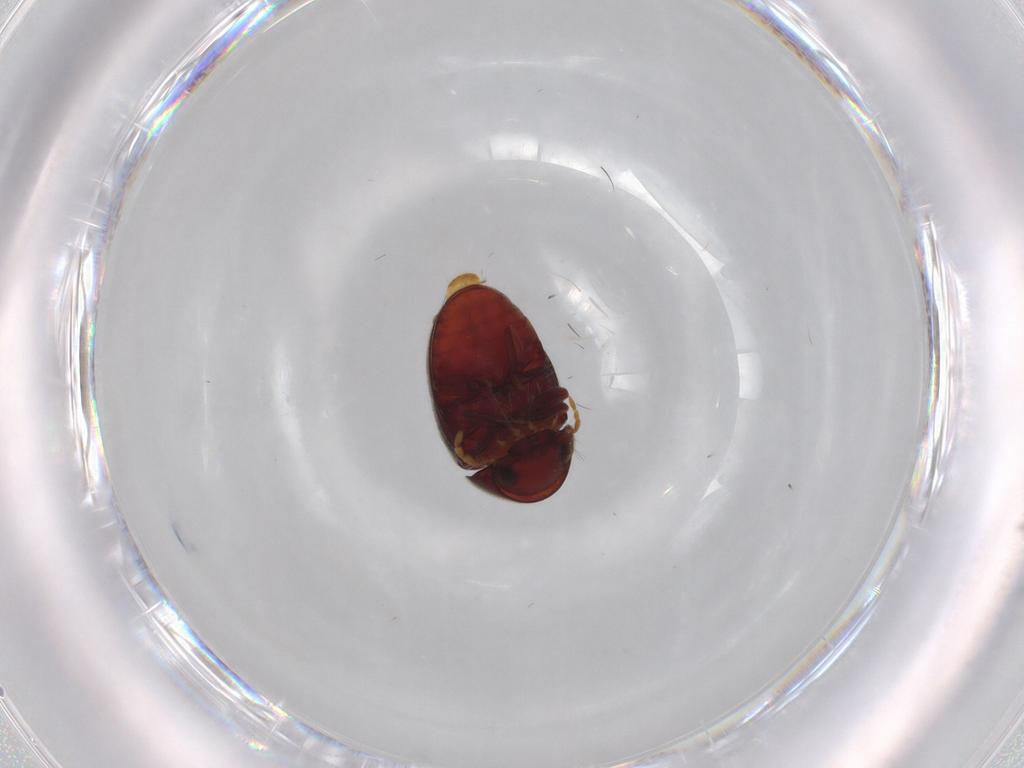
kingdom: Animalia
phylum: Arthropoda
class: Insecta
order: Coleoptera
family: Ptinidae
